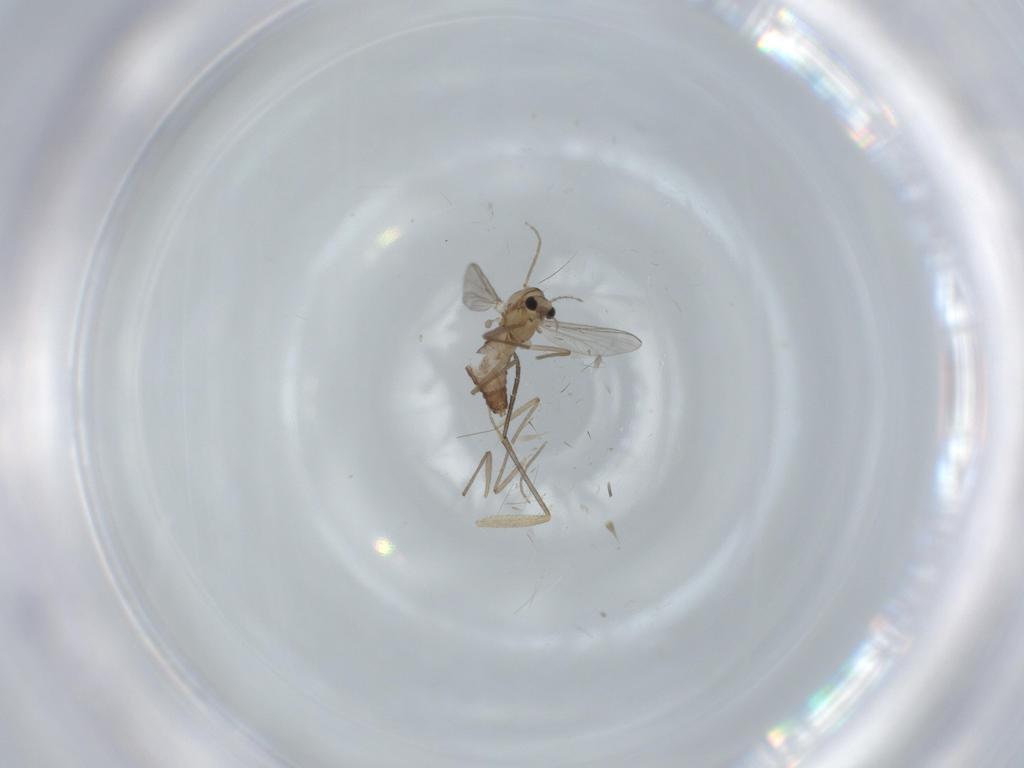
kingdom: Animalia
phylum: Arthropoda
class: Insecta
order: Diptera
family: Chironomidae
